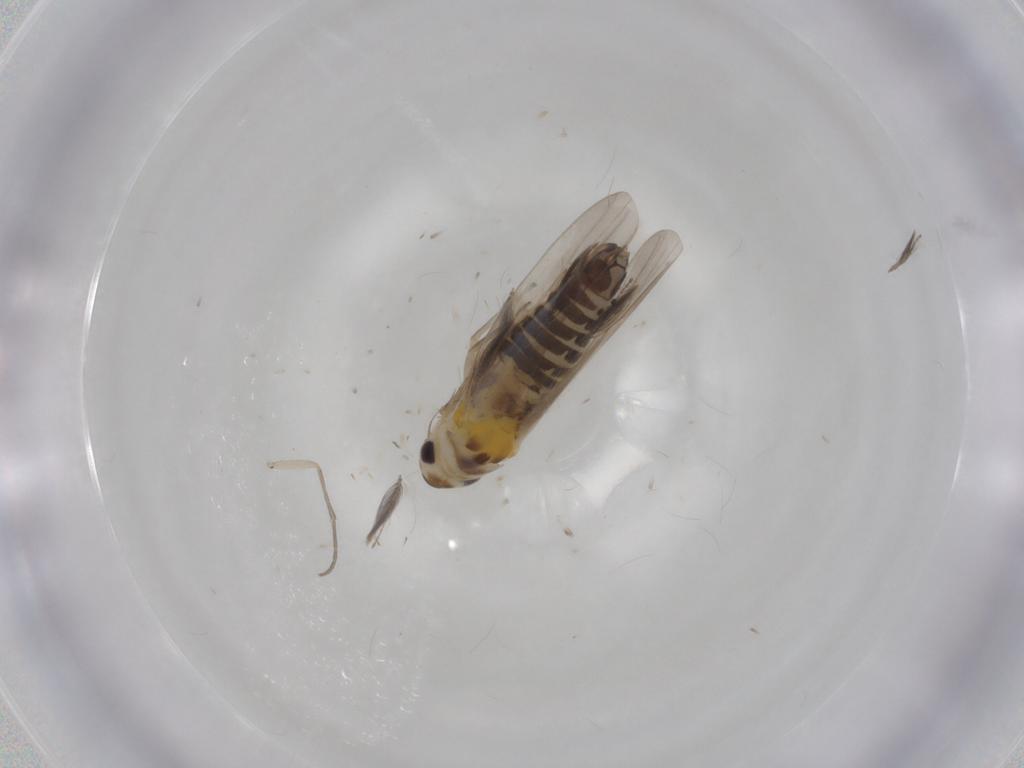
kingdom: Animalia
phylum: Arthropoda
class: Insecta
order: Hemiptera
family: Cicadellidae
